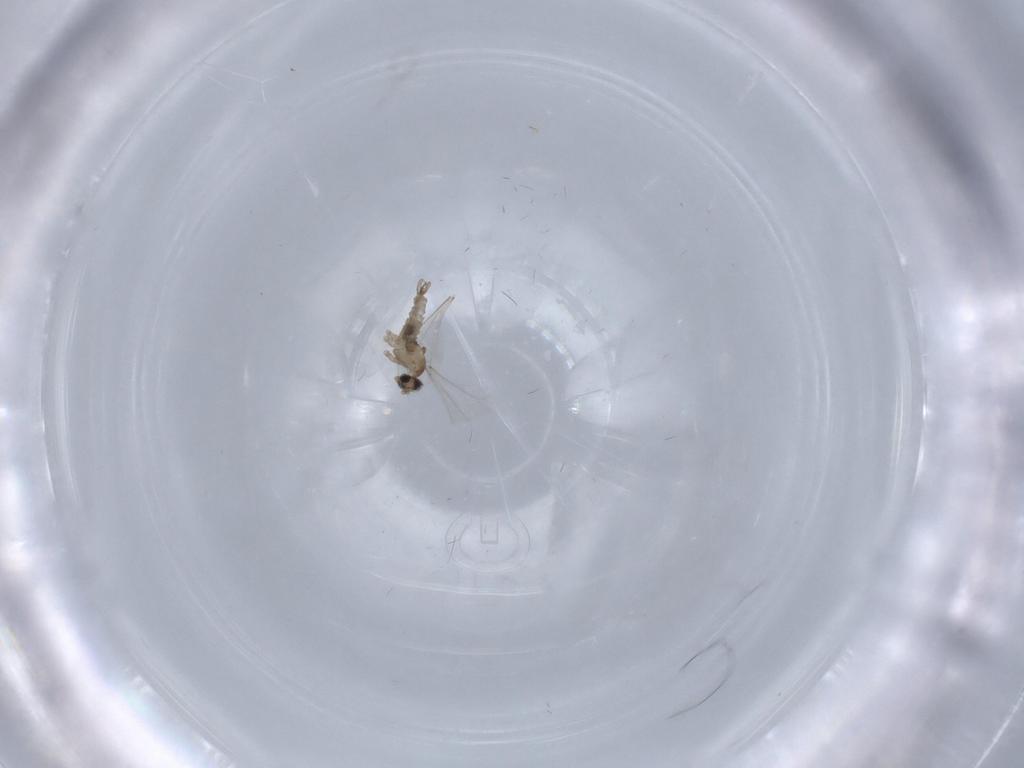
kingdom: Animalia
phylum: Arthropoda
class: Insecta
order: Diptera
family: Cecidomyiidae
